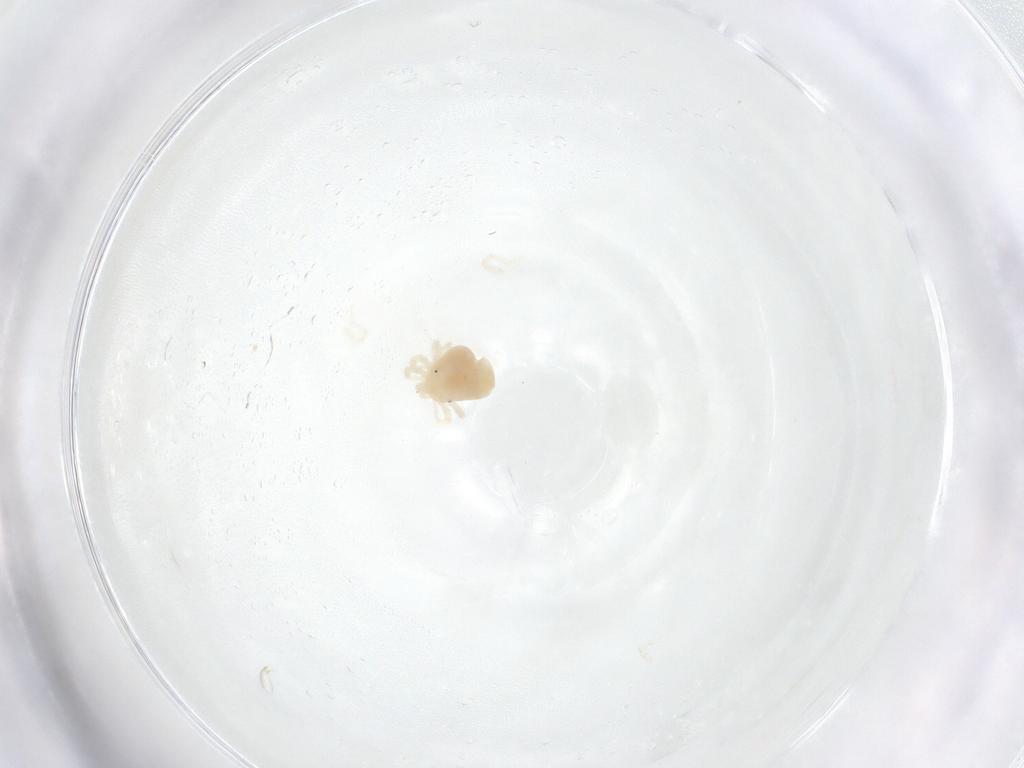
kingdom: Animalia
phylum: Arthropoda
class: Arachnida
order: Trombidiformes
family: Anystidae
